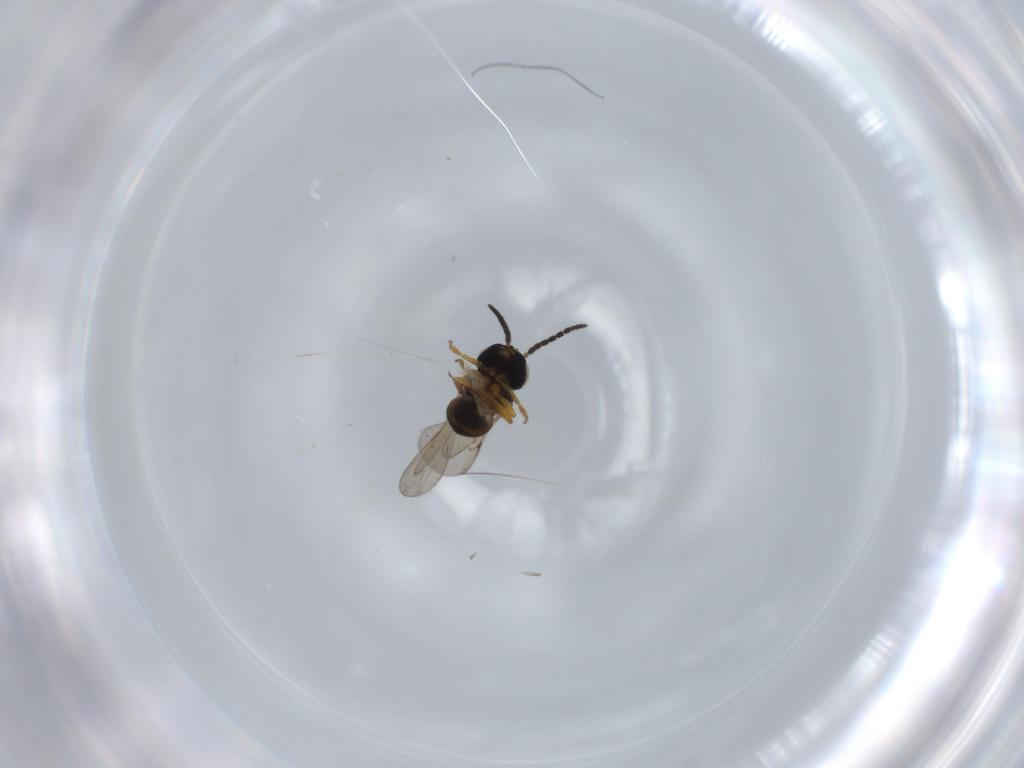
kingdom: Animalia
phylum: Arthropoda
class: Insecta
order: Hymenoptera
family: Scelionidae
